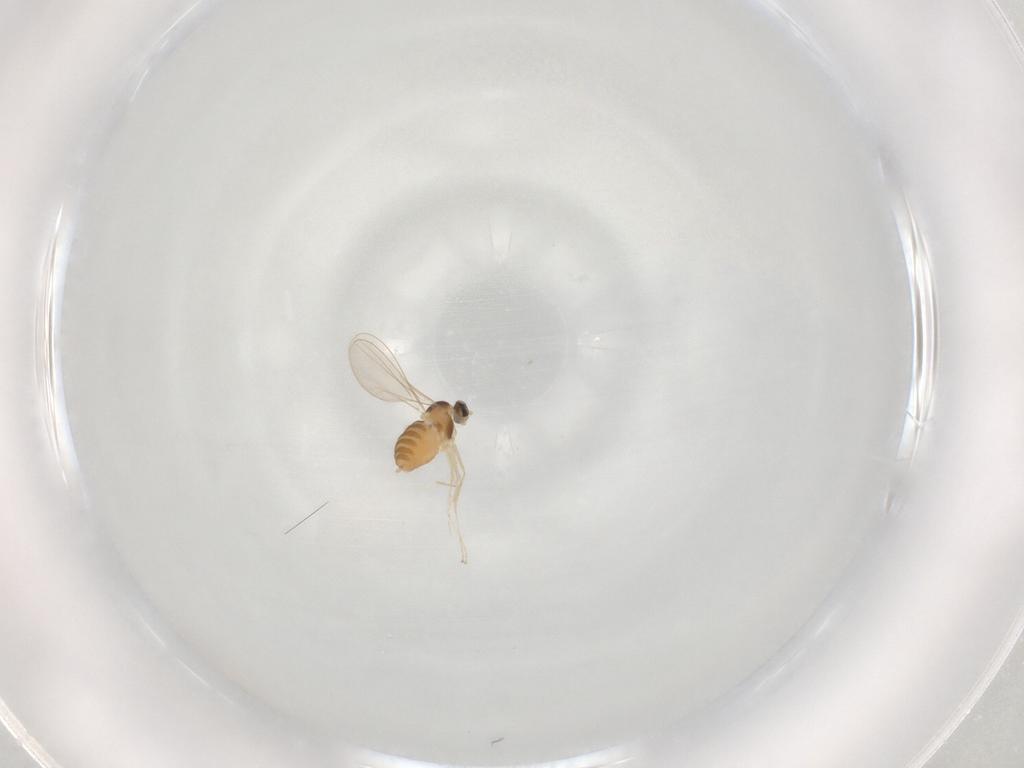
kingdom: Animalia
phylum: Arthropoda
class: Insecta
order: Diptera
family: Cecidomyiidae
